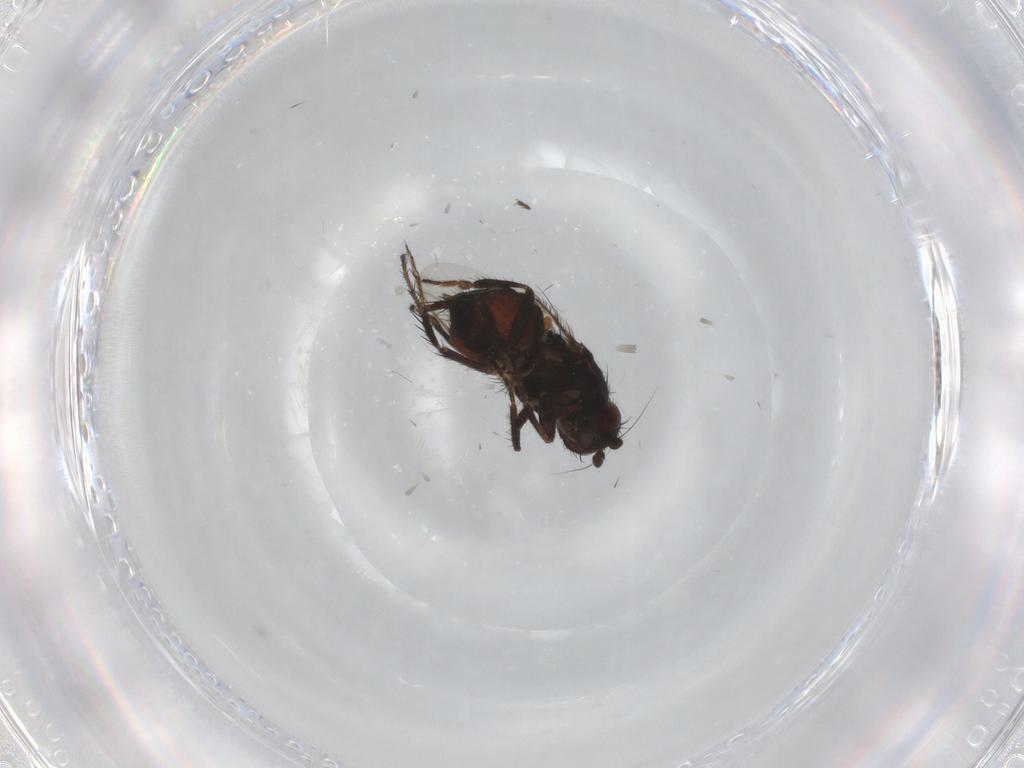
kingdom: Animalia
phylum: Arthropoda
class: Insecta
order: Diptera
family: Sphaeroceridae
